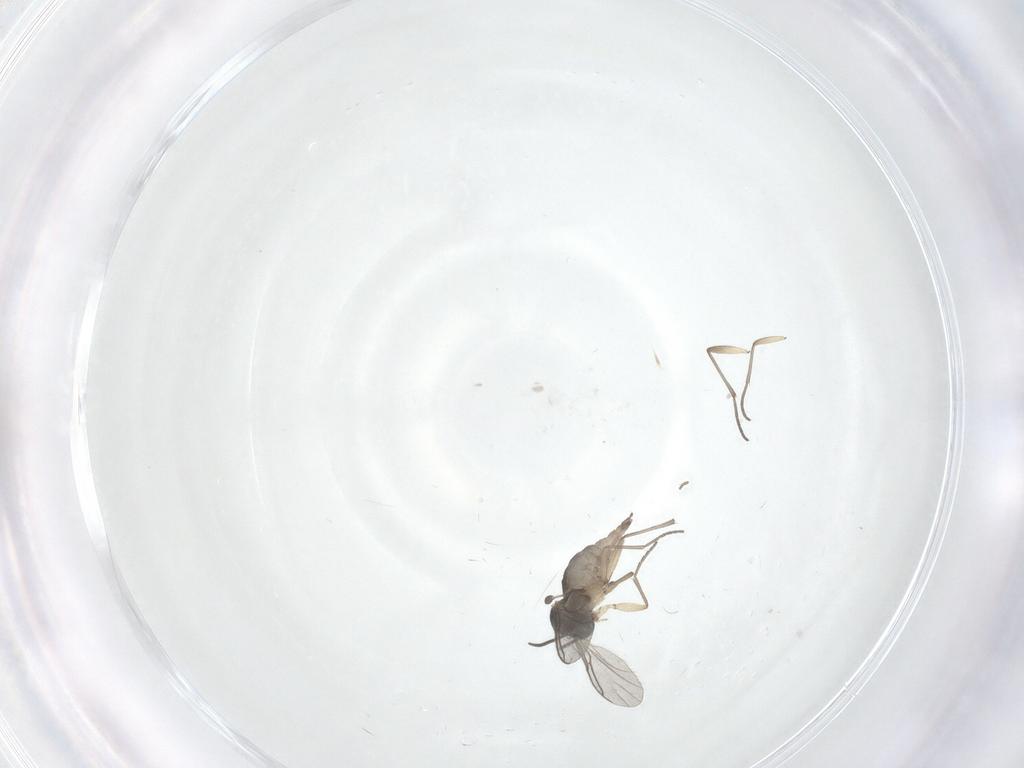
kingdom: Animalia
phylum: Arthropoda
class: Insecta
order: Diptera
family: Sciaridae
